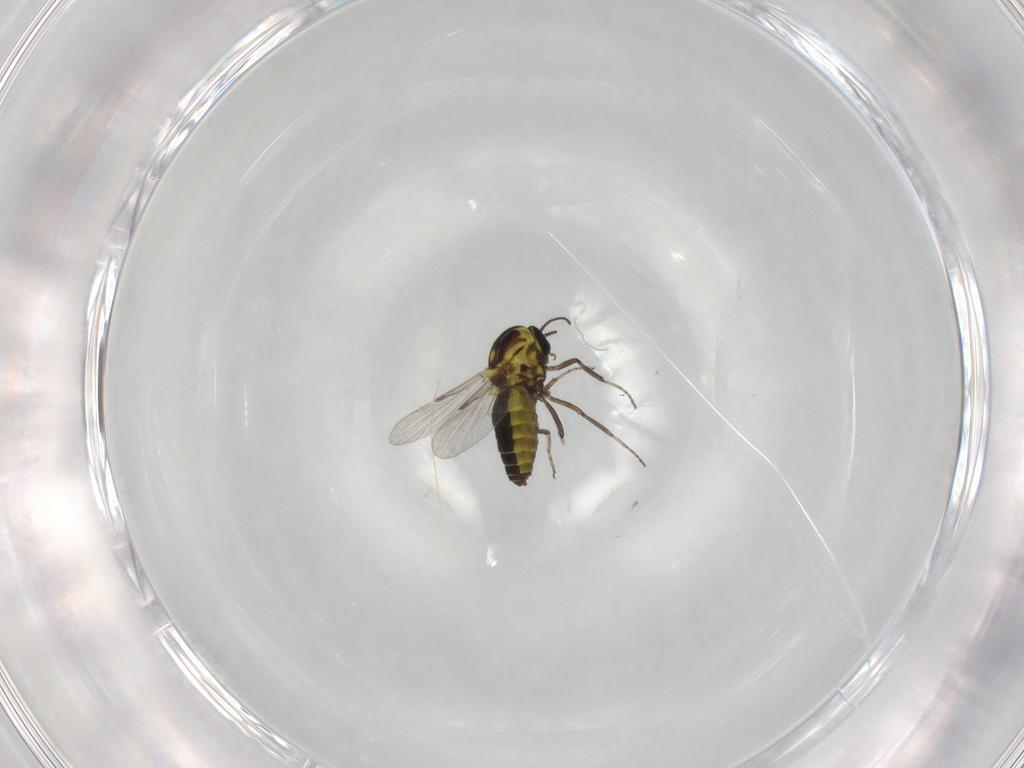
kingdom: Animalia
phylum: Arthropoda
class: Insecta
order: Diptera
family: Ceratopogonidae
